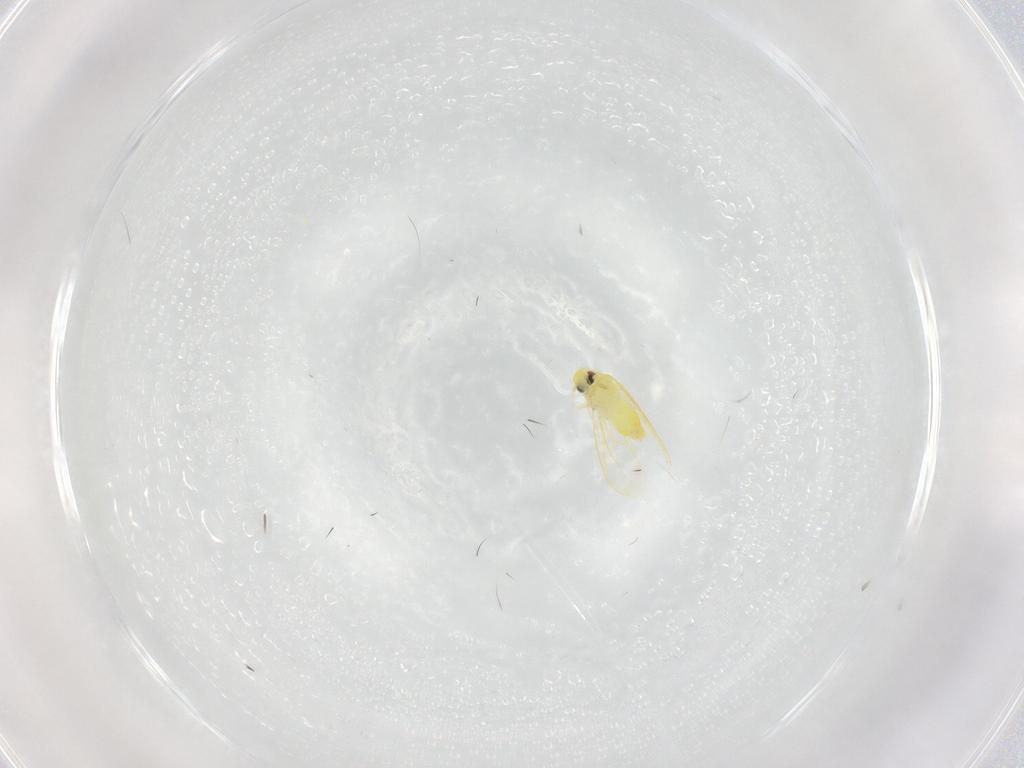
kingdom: Animalia
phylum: Arthropoda
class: Insecta
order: Hemiptera
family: Aleyrodidae
